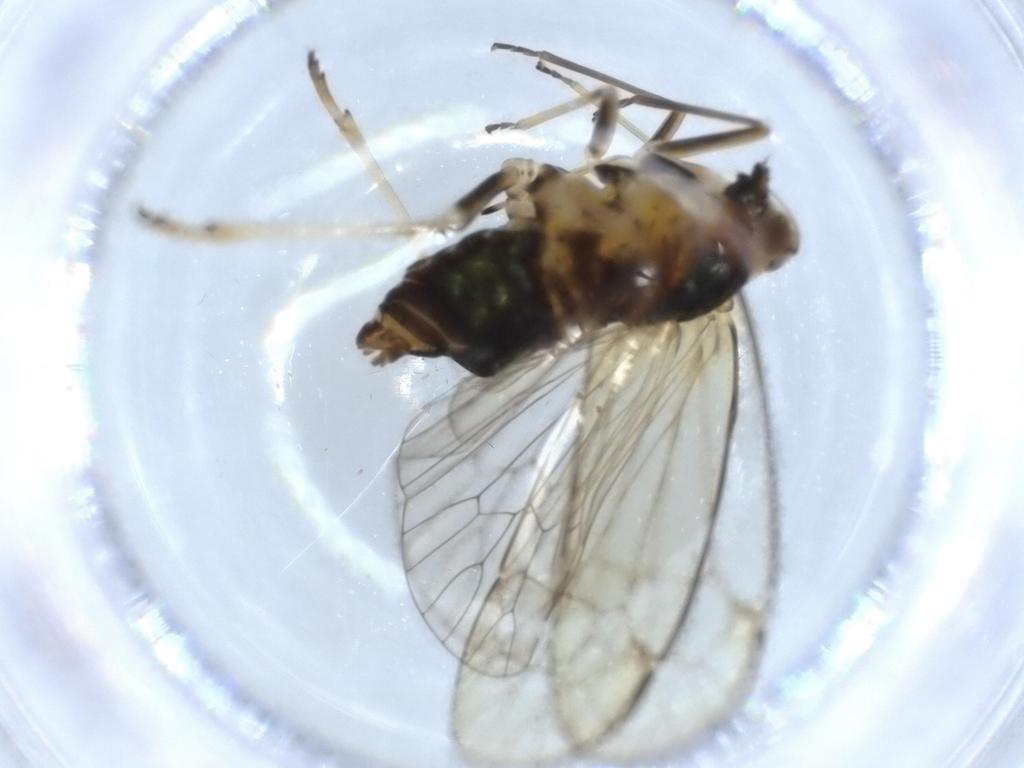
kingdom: Animalia
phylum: Arthropoda
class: Insecta
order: Hemiptera
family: Kinnaridae
